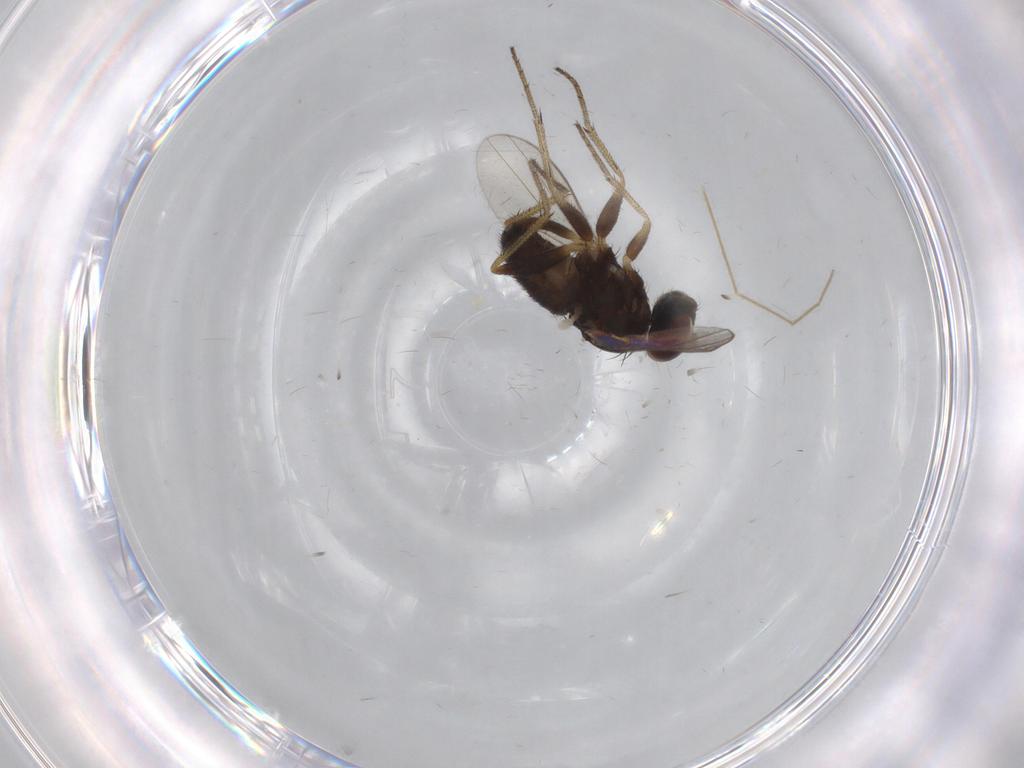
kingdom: Animalia
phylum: Arthropoda
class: Insecta
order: Diptera
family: Chironomidae
